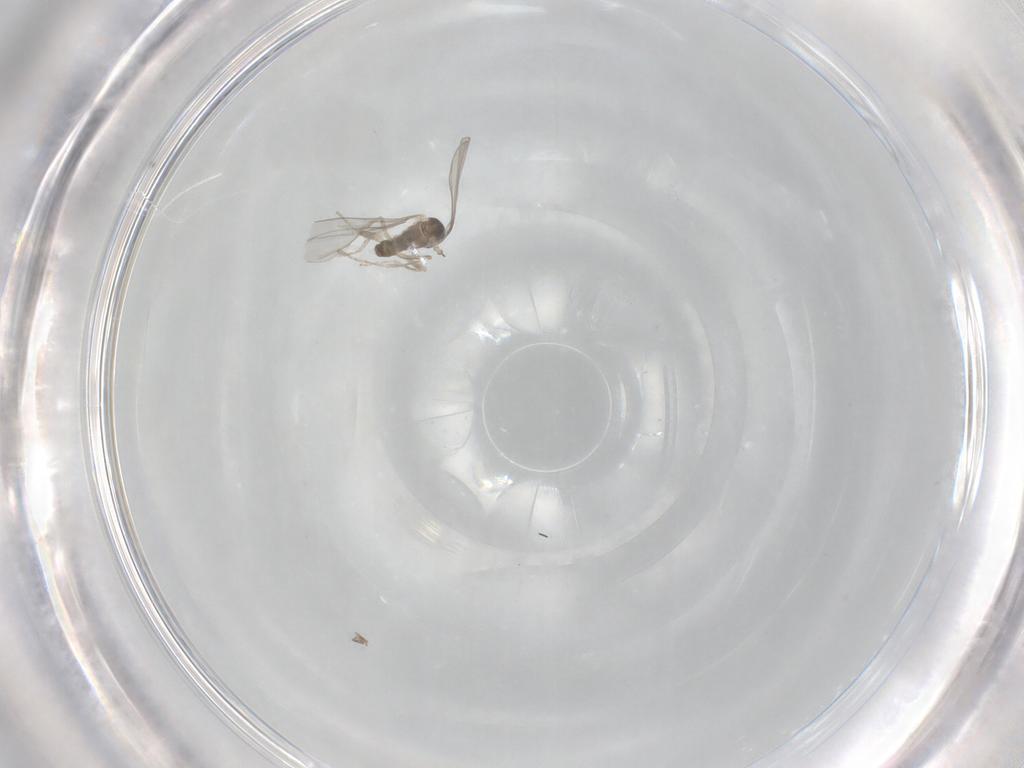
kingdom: Animalia
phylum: Arthropoda
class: Insecta
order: Diptera
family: Cecidomyiidae
